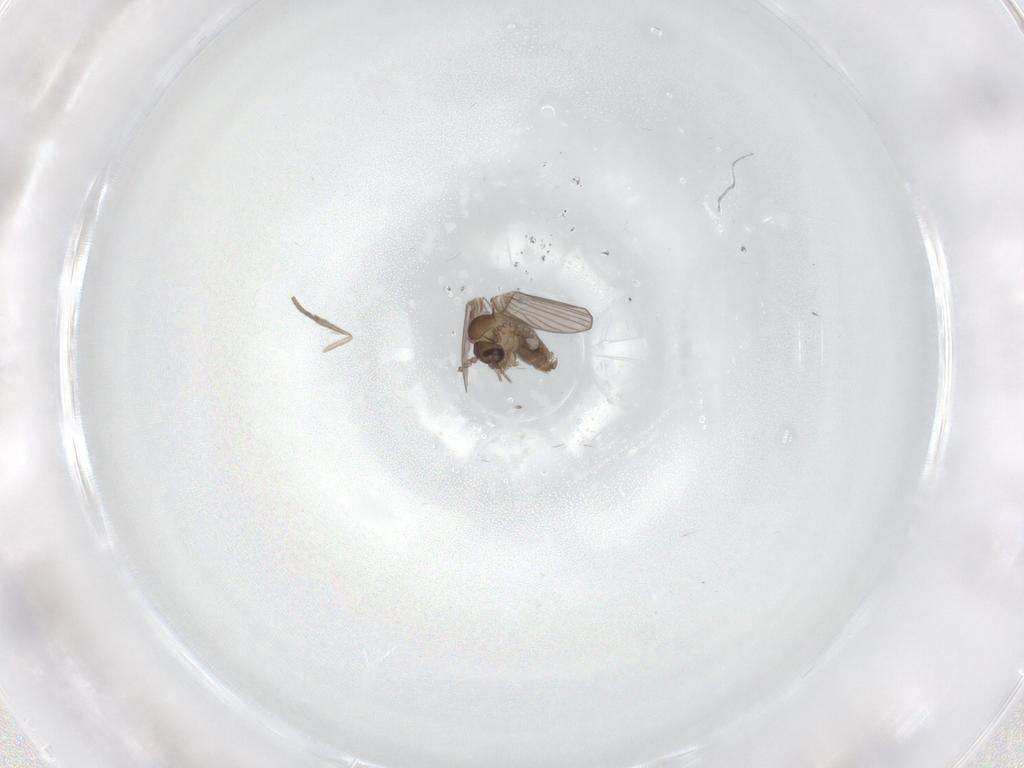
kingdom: Animalia
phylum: Arthropoda
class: Insecta
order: Diptera
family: Psychodidae
